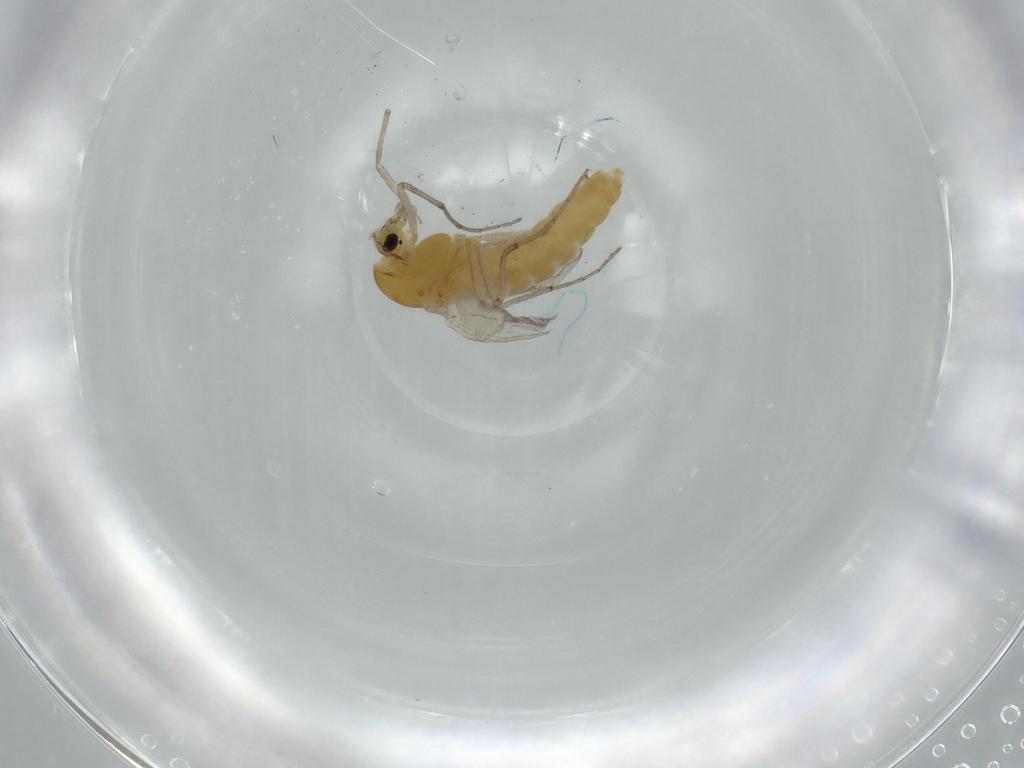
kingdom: Animalia
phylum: Arthropoda
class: Insecta
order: Diptera
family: Chironomidae
